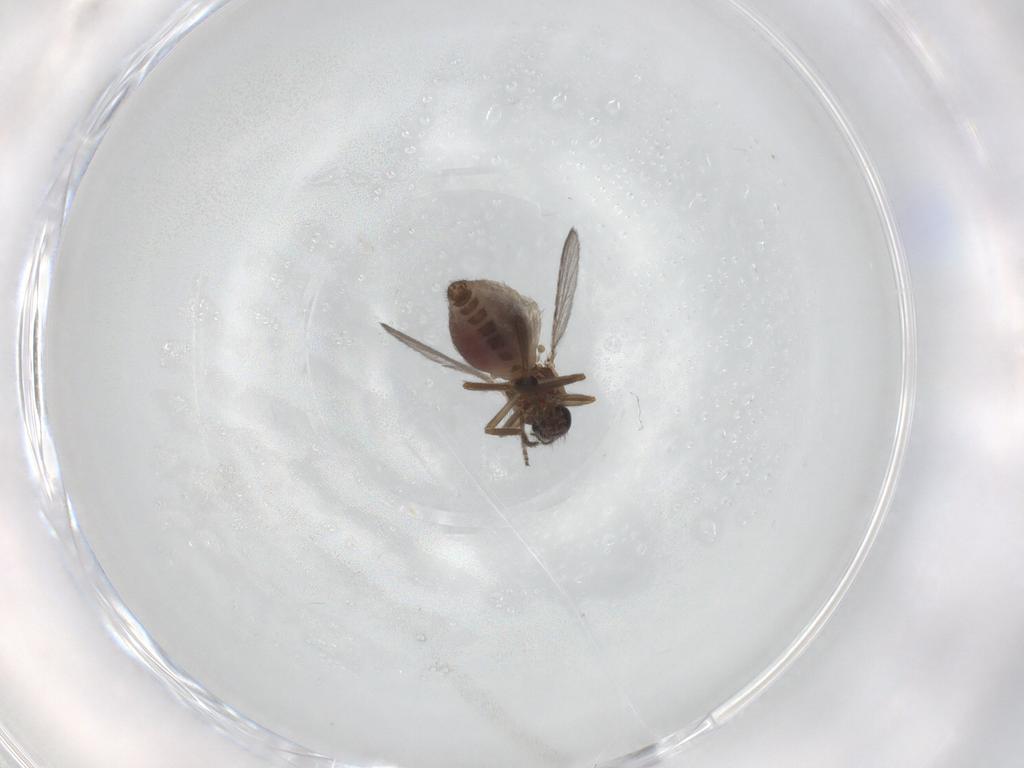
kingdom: Animalia
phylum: Arthropoda
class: Insecta
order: Diptera
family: Ceratopogonidae
